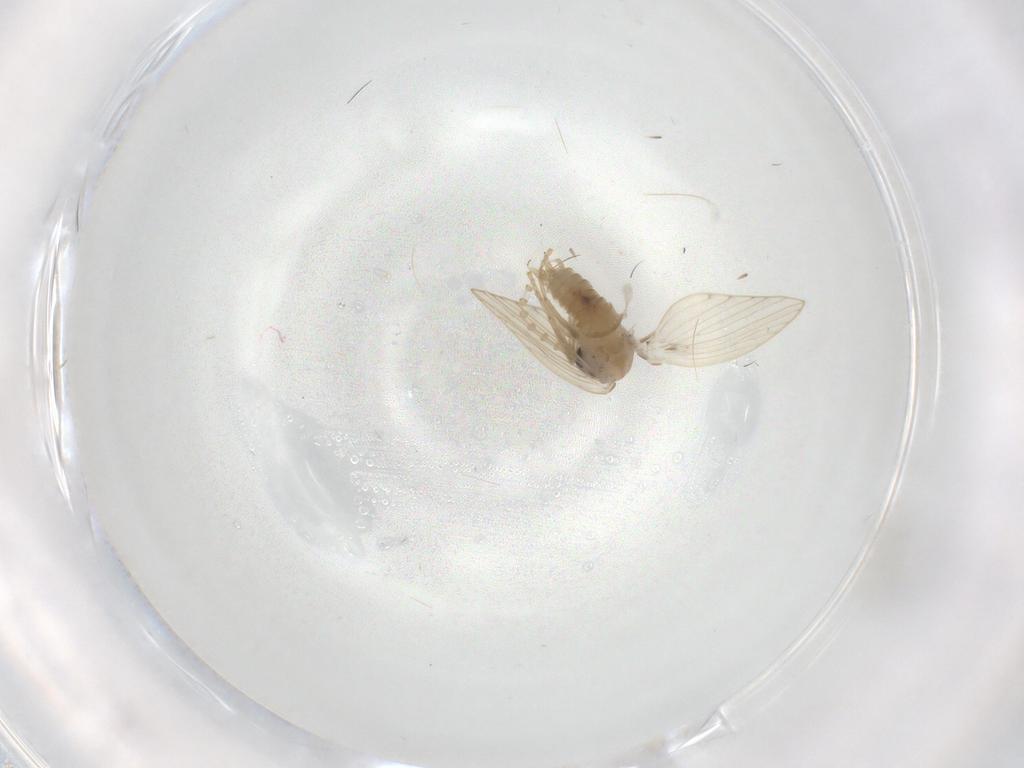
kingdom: Animalia
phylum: Arthropoda
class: Insecta
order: Diptera
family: Psychodidae
